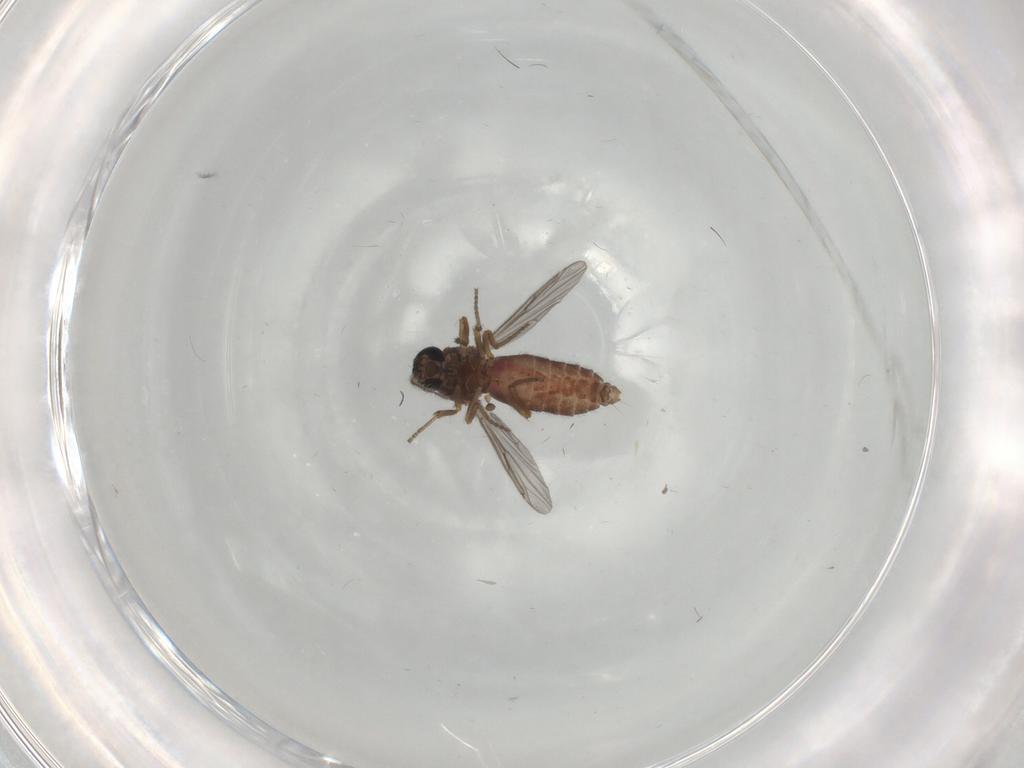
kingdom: Animalia
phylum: Arthropoda
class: Insecta
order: Diptera
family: Ceratopogonidae
